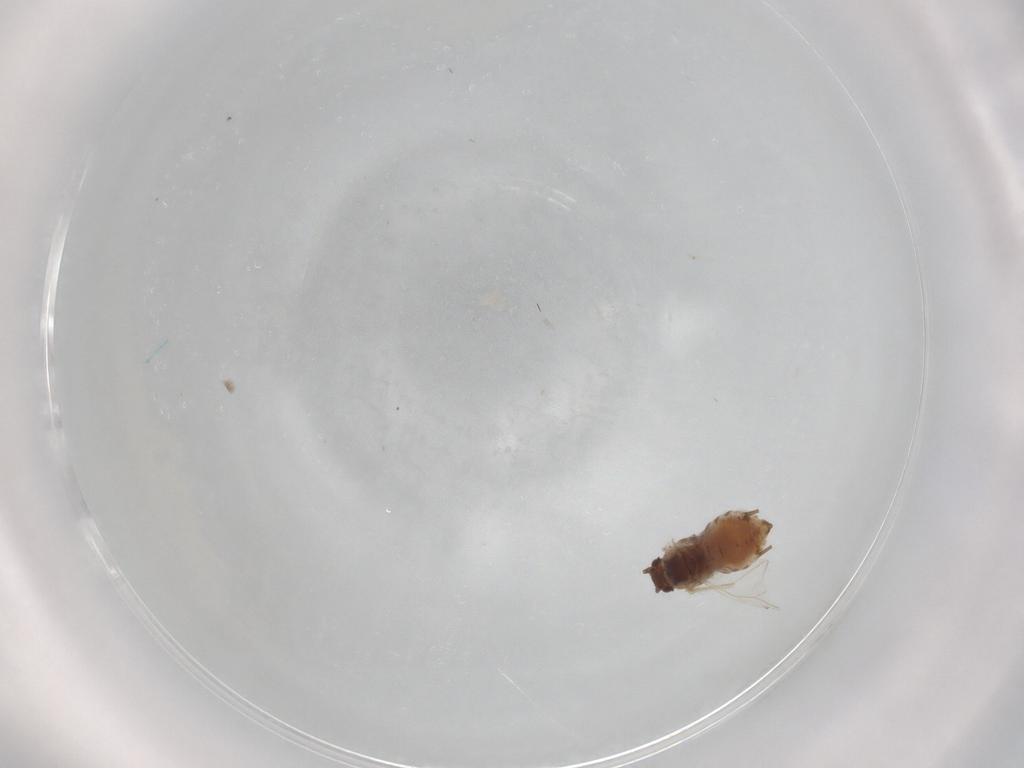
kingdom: Animalia
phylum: Arthropoda
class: Insecta
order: Hemiptera
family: Aphididae
